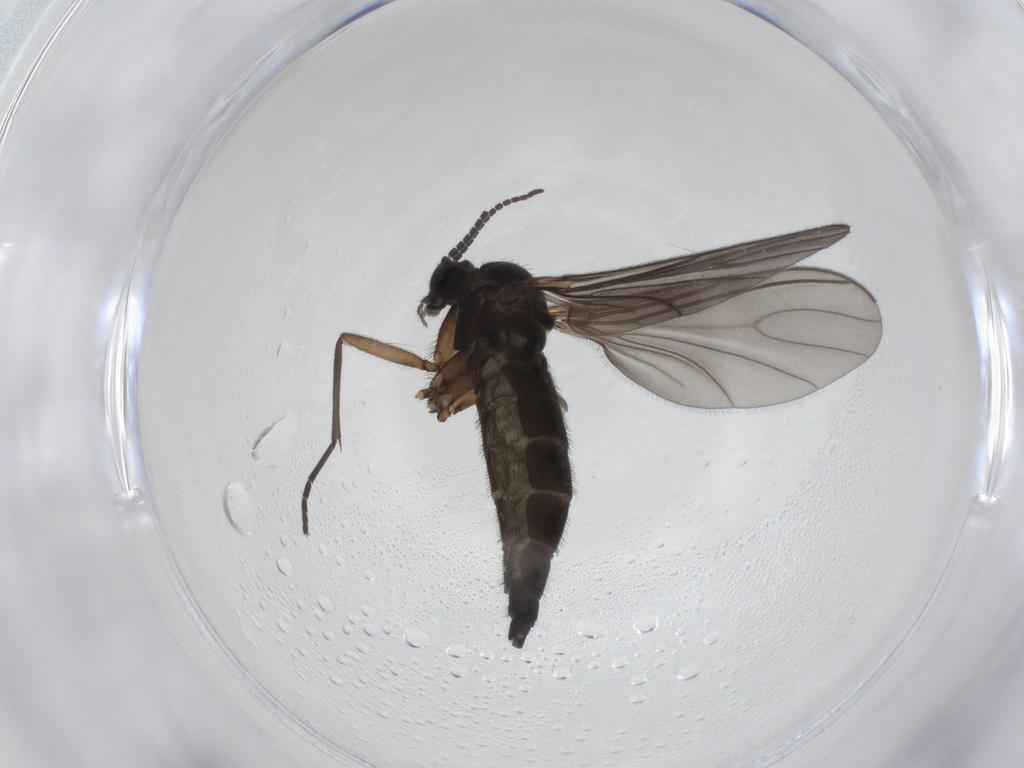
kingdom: Animalia
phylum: Arthropoda
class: Insecta
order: Diptera
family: Sciaridae
